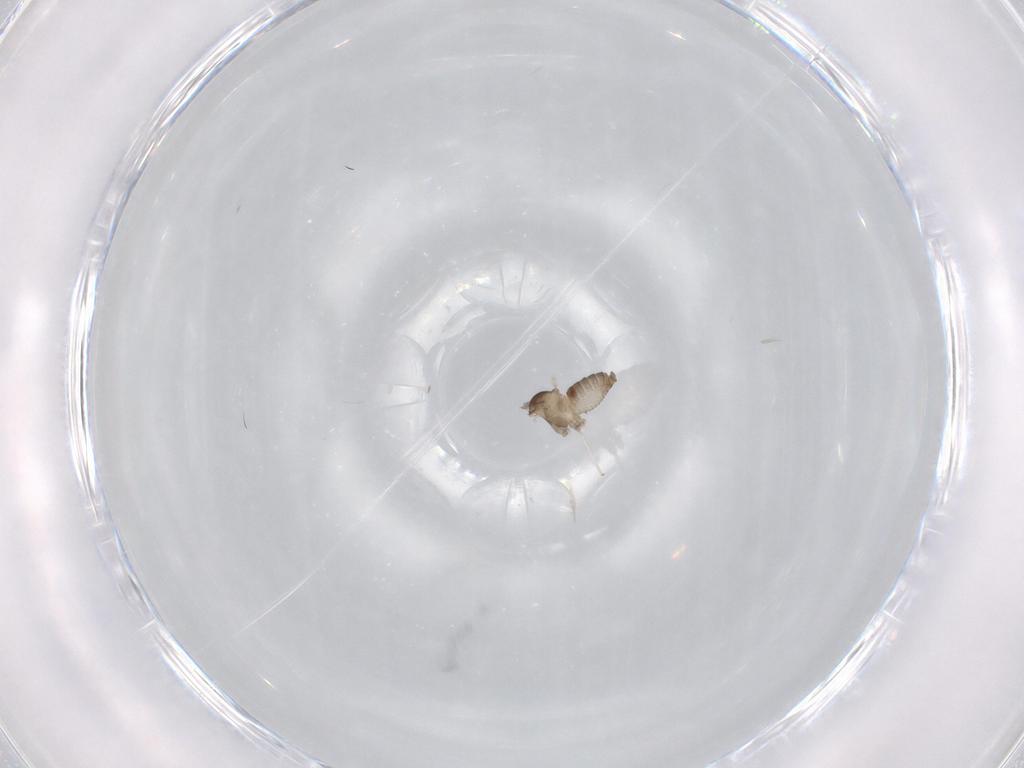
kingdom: Animalia
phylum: Arthropoda
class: Insecta
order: Diptera
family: Cecidomyiidae
